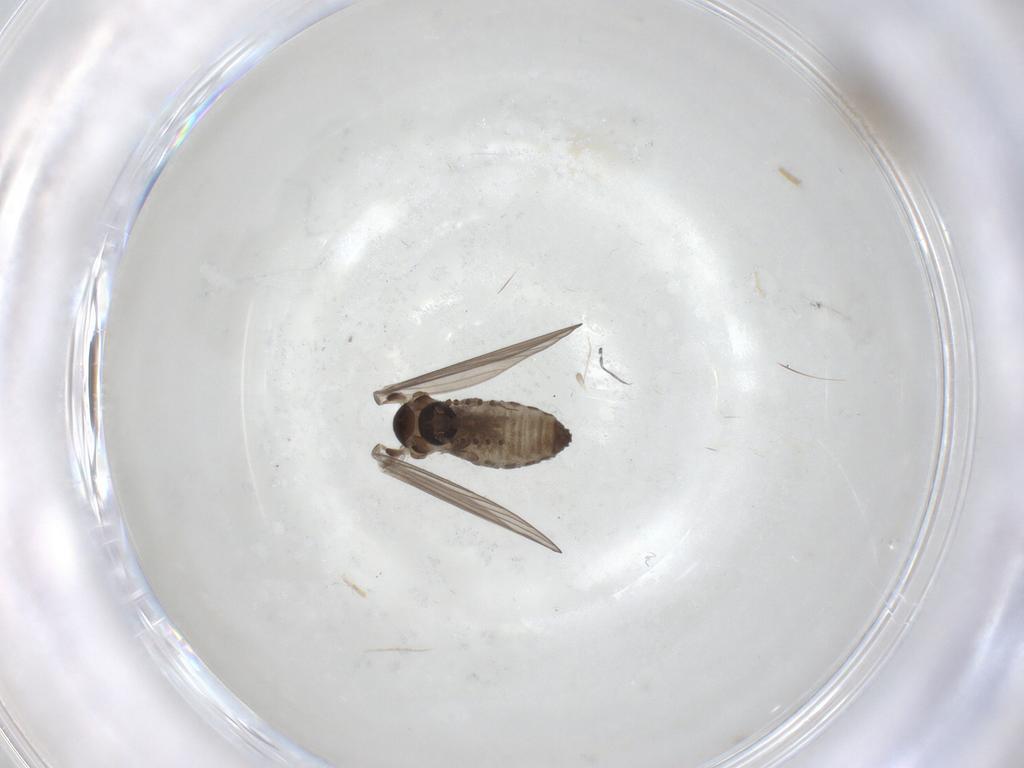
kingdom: Animalia
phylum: Arthropoda
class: Insecta
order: Diptera
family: Psychodidae
